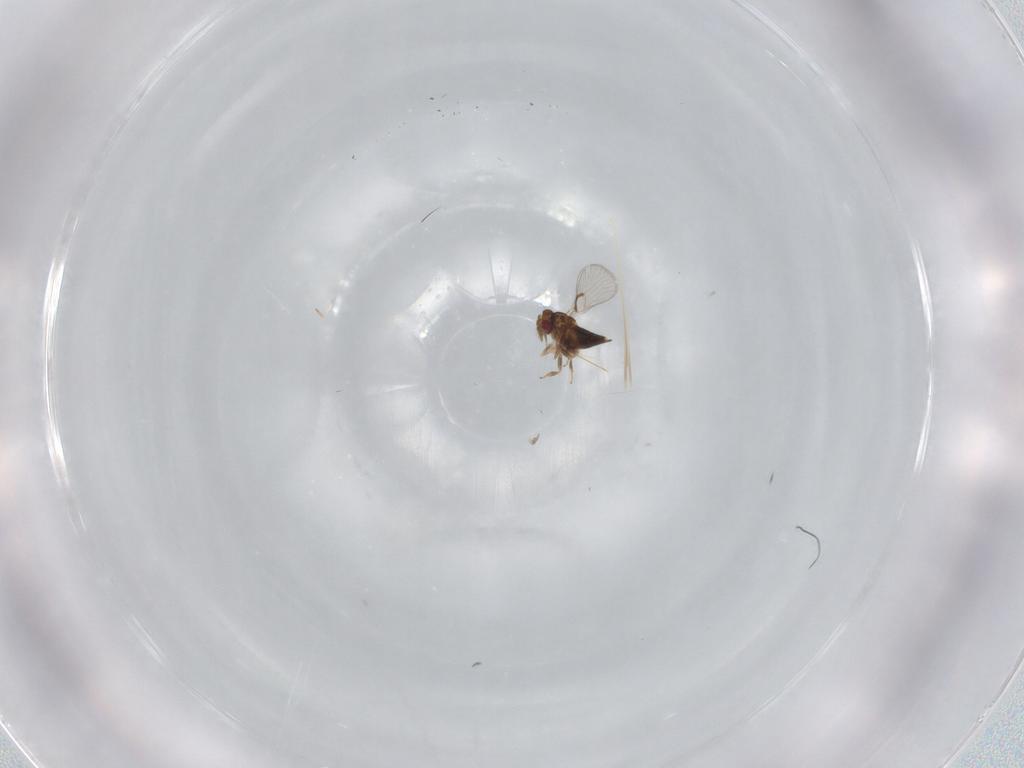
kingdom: Animalia
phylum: Arthropoda
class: Insecta
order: Hymenoptera
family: Trichogrammatidae
